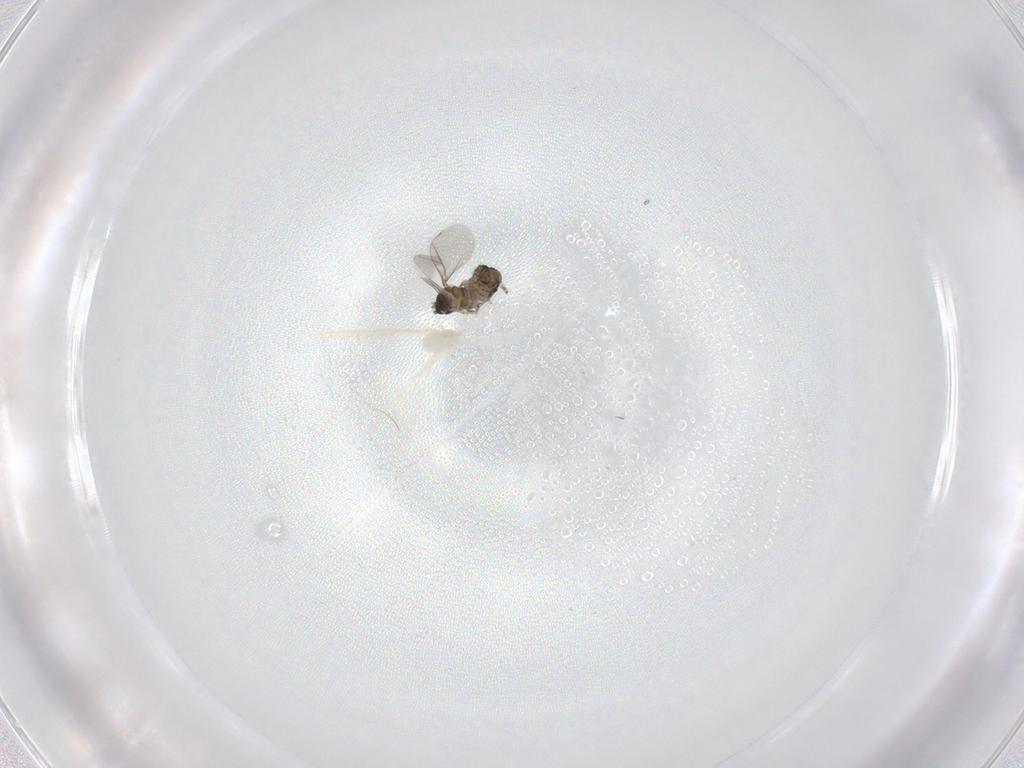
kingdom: Animalia
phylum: Arthropoda
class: Insecta
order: Diptera
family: Cecidomyiidae
